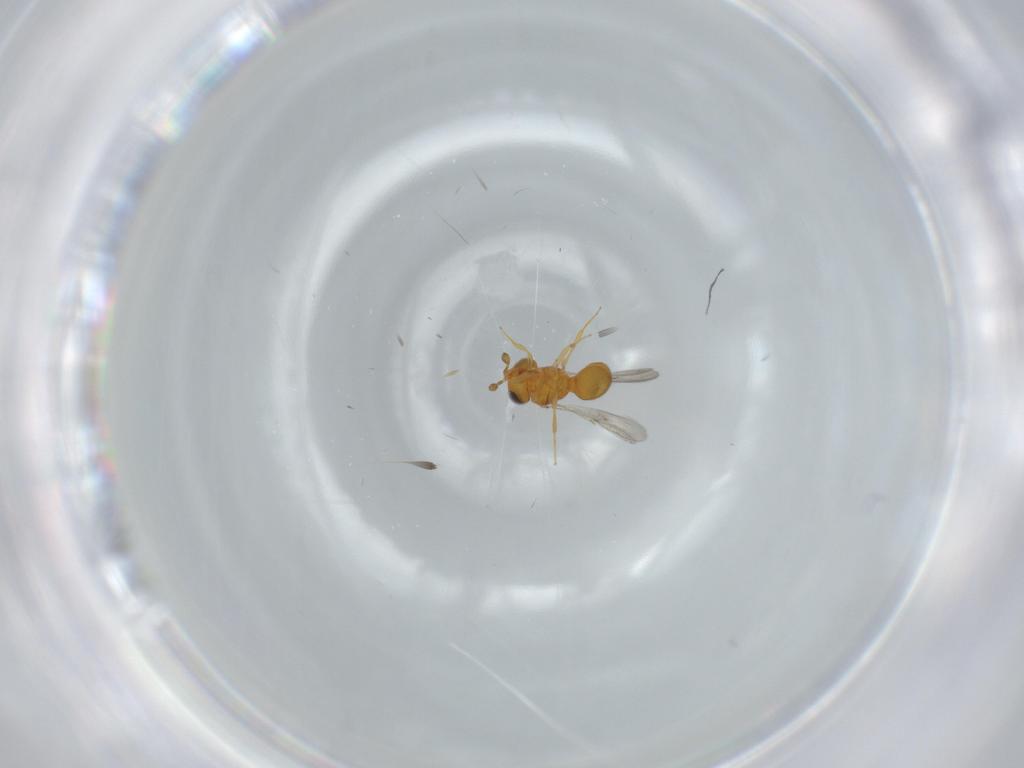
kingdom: Animalia
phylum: Arthropoda
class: Insecta
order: Hymenoptera
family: Scelionidae
